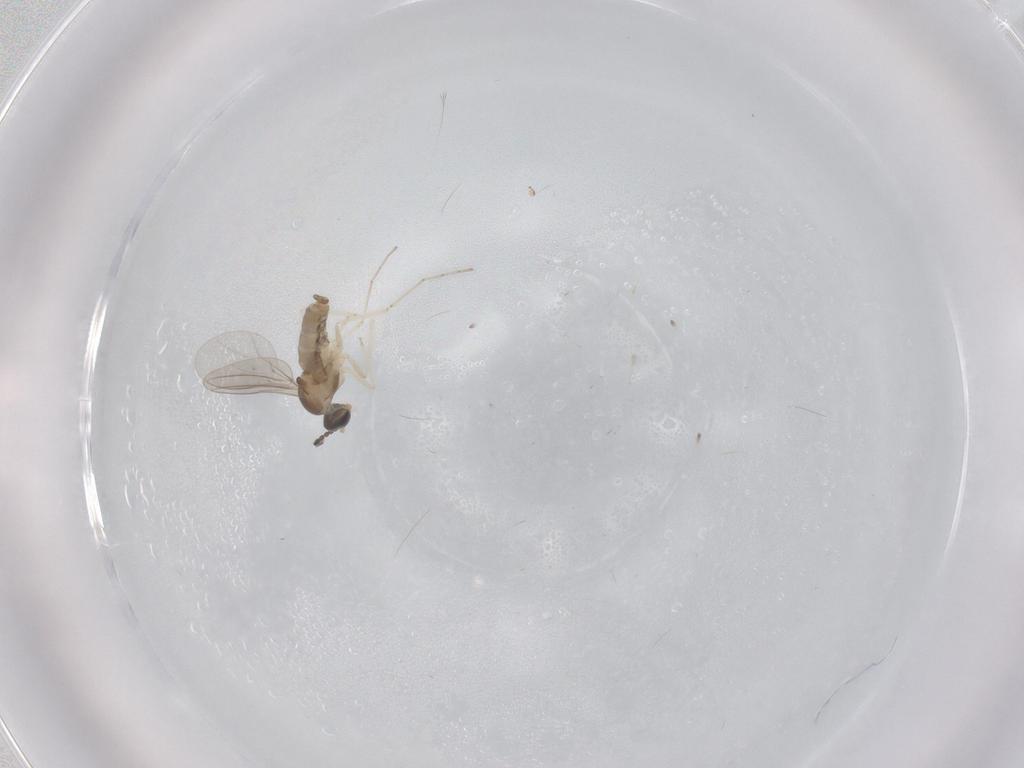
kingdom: Animalia
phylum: Arthropoda
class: Insecta
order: Diptera
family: Cecidomyiidae
